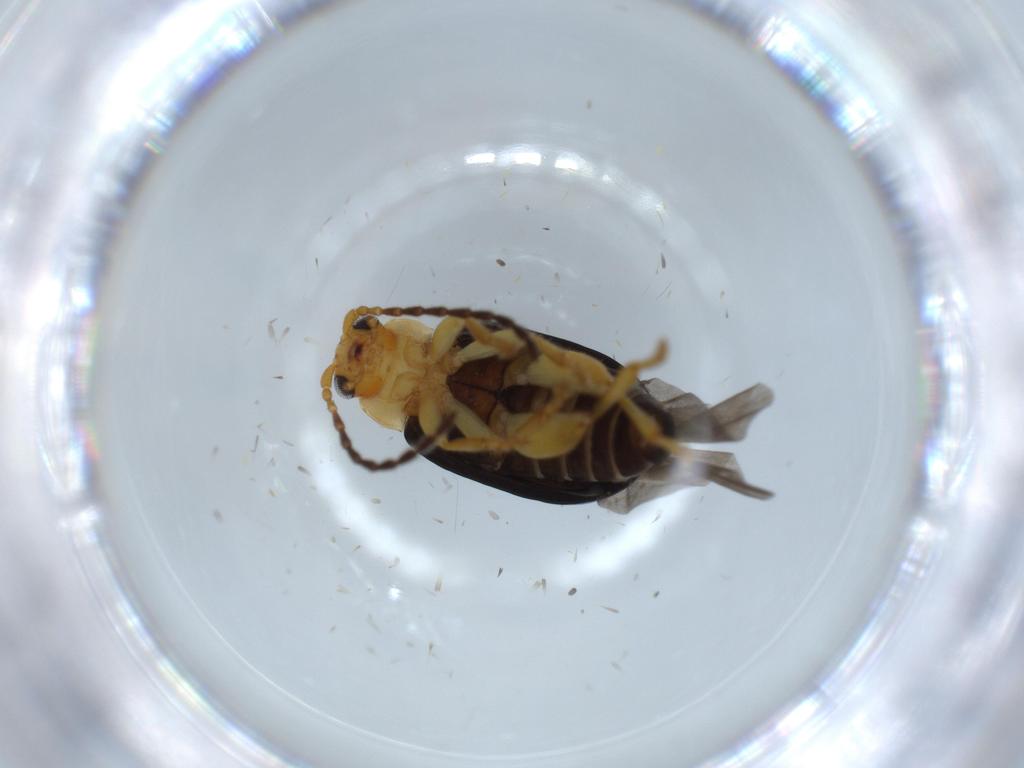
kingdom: Animalia
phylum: Arthropoda
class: Insecta
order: Coleoptera
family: Chrysomelidae
